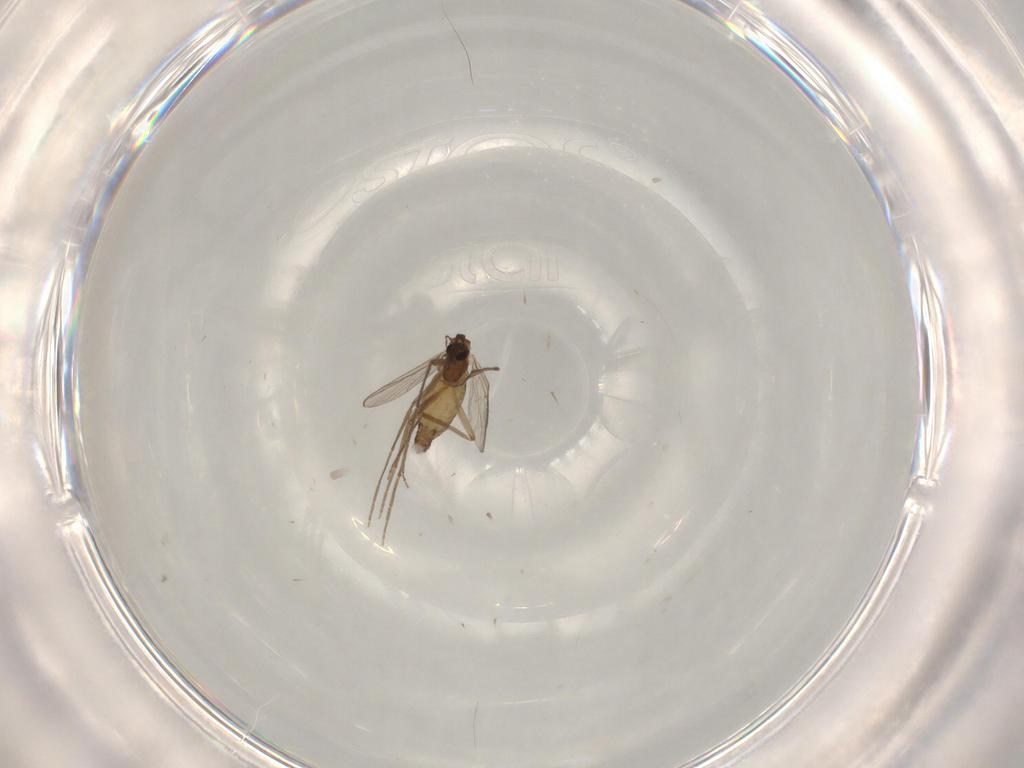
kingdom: Animalia
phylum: Arthropoda
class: Insecta
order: Diptera
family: Chironomidae
